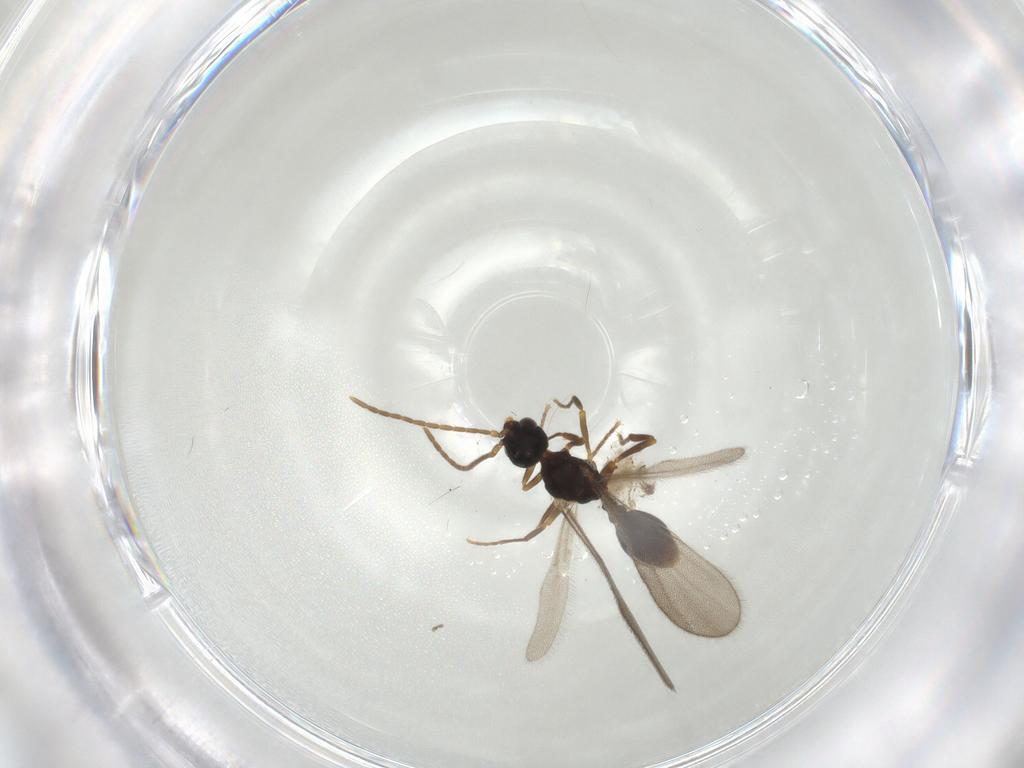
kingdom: Animalia
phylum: Arthropoda
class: Insecta
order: Hymenoptera
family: Formicidae
